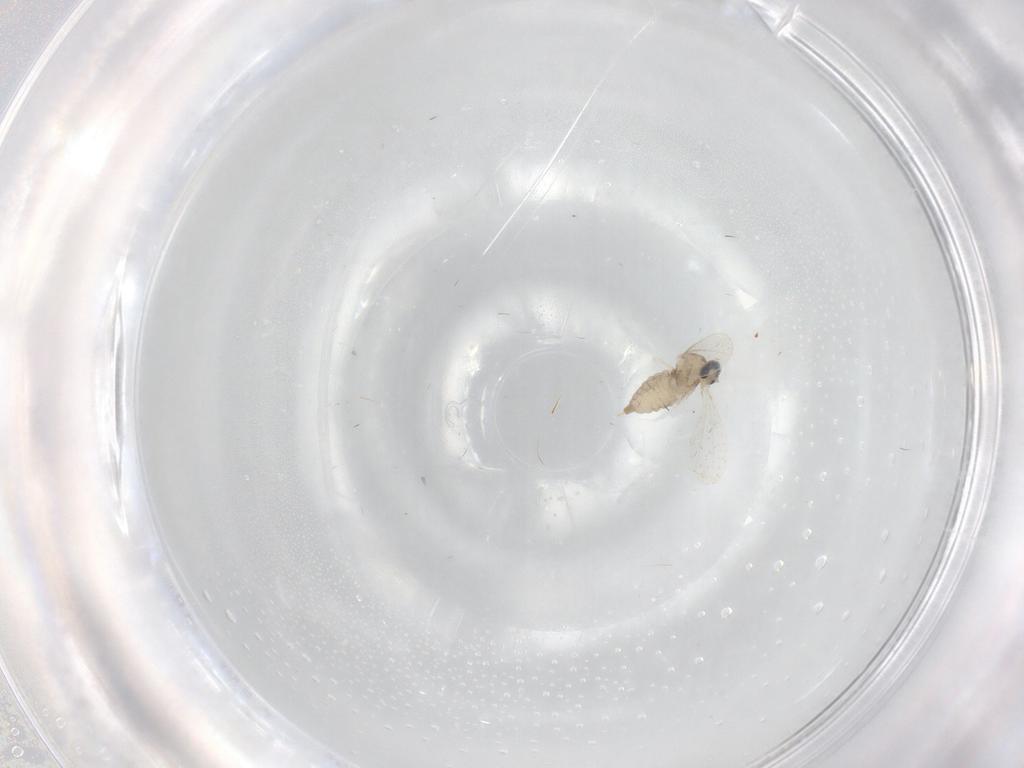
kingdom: Animalia
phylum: Arthropoda
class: Insecta
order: Diptera
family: Cecidomyiidae
